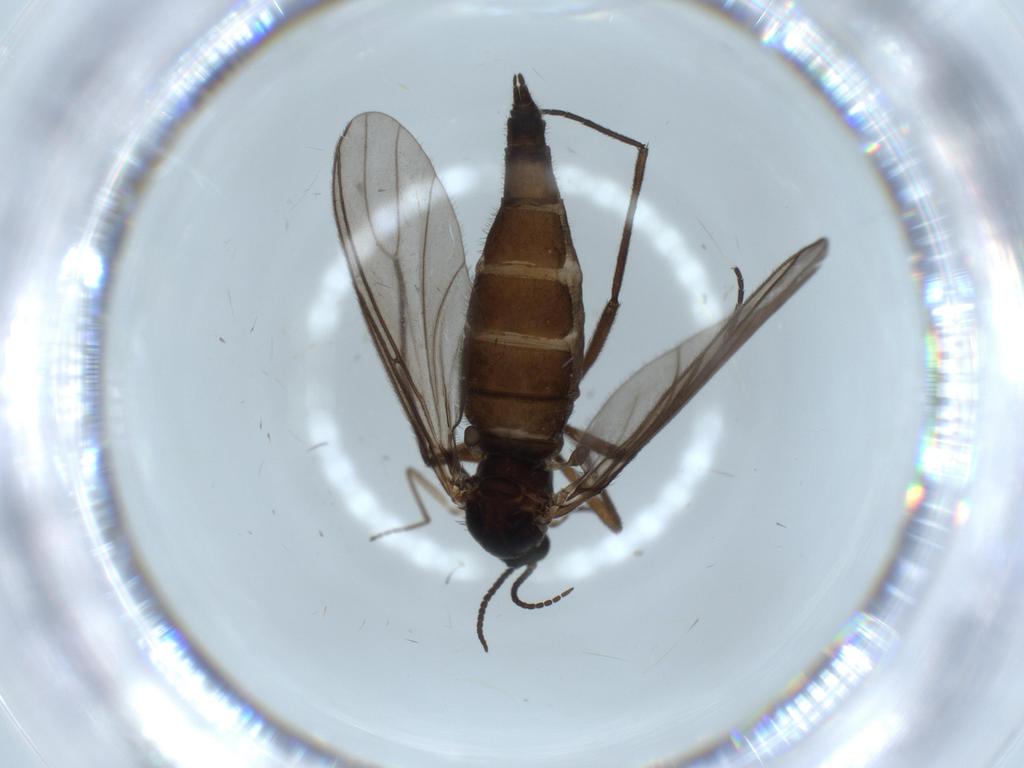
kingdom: Animalia
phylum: Arthropoda
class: Insecta
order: Diptera
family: Sciaridae
